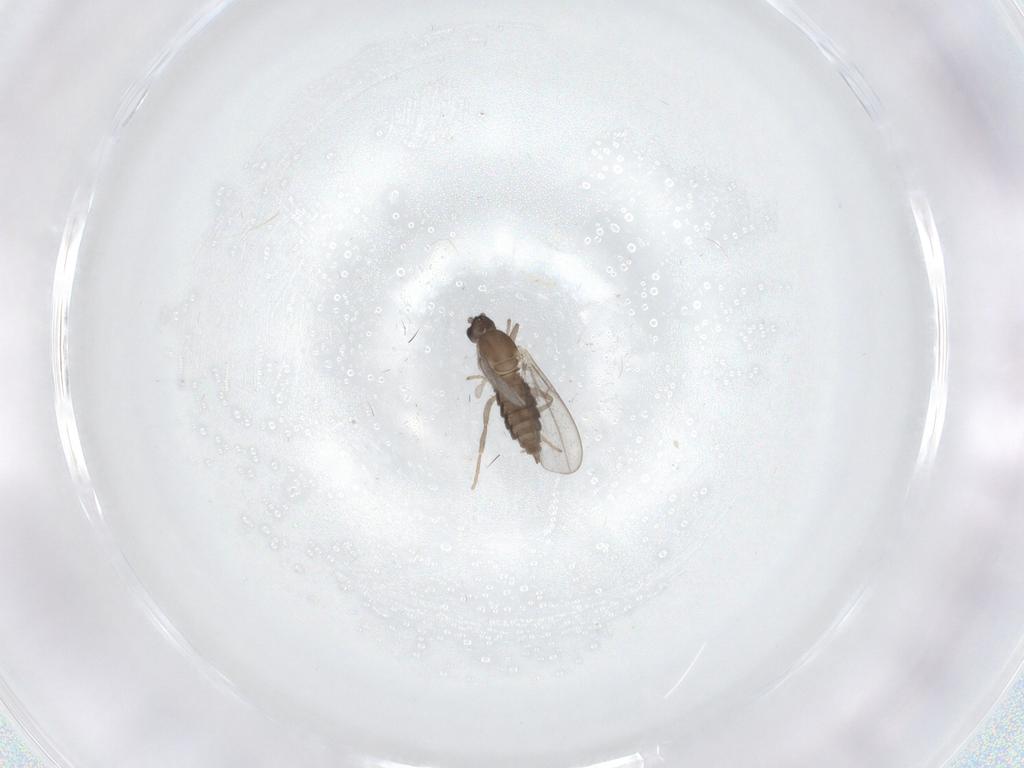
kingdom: Animalia
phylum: Arthropoda
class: Insecta
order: Diptera
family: Cecidomyiidae
